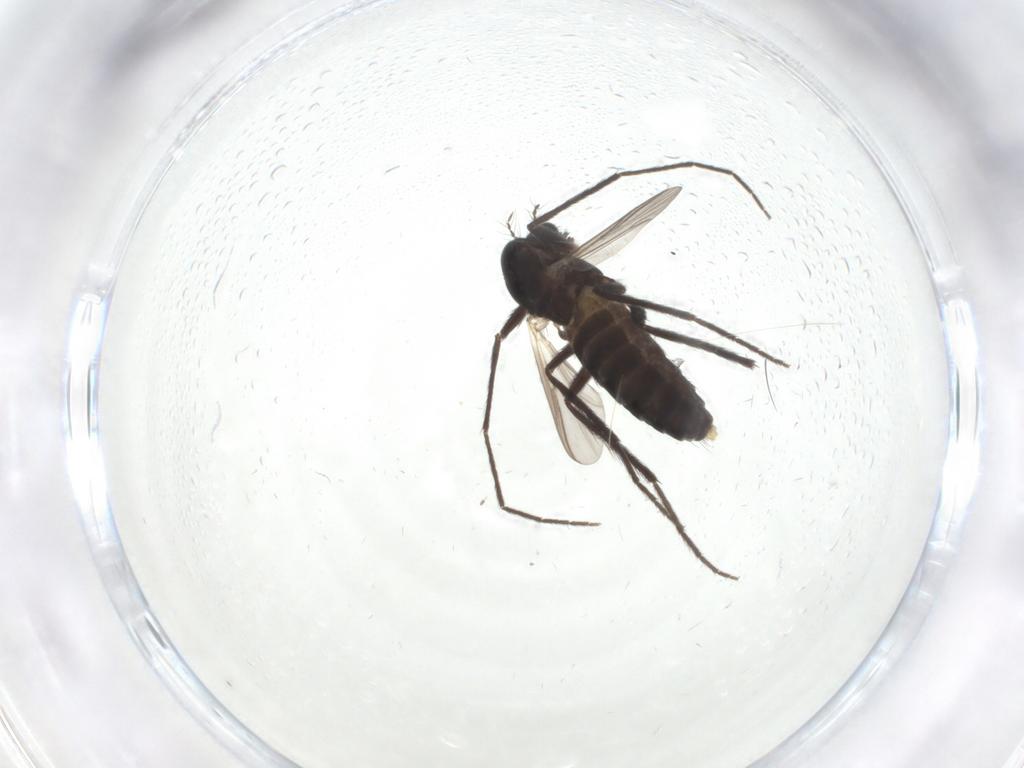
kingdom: Animalia
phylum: Arthropoda
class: Insecta
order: Diptera
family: Chironomidae
